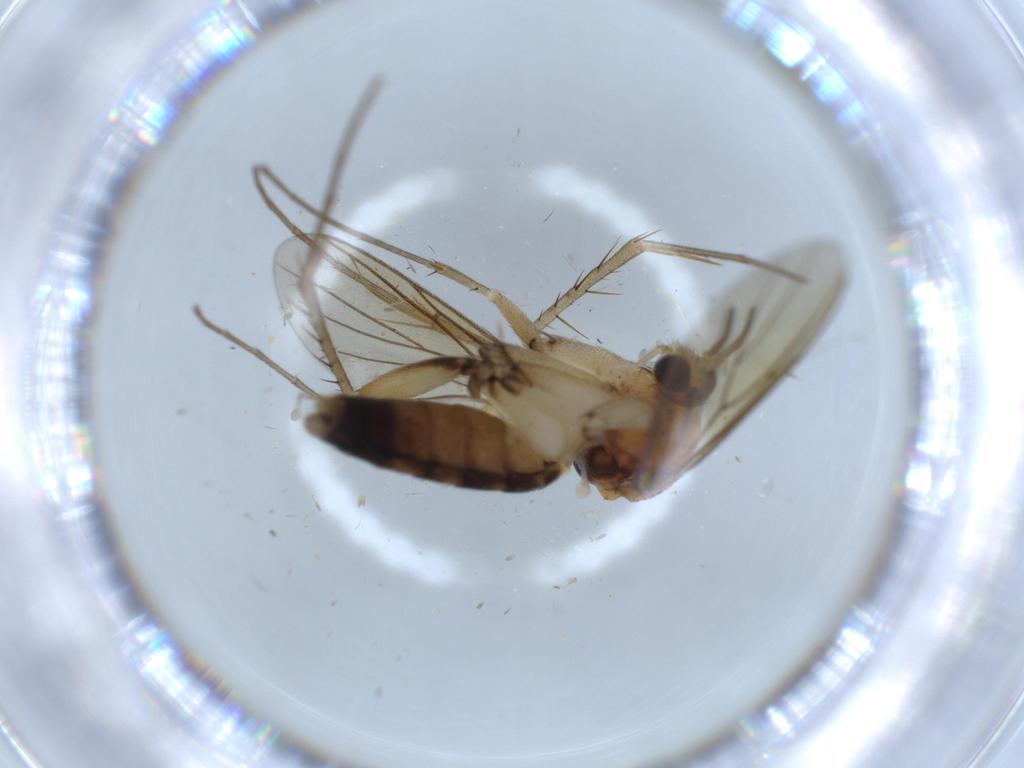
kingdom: Animalia
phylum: Arthropoda
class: Insecta
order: Diptera
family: Mycetophilidae
